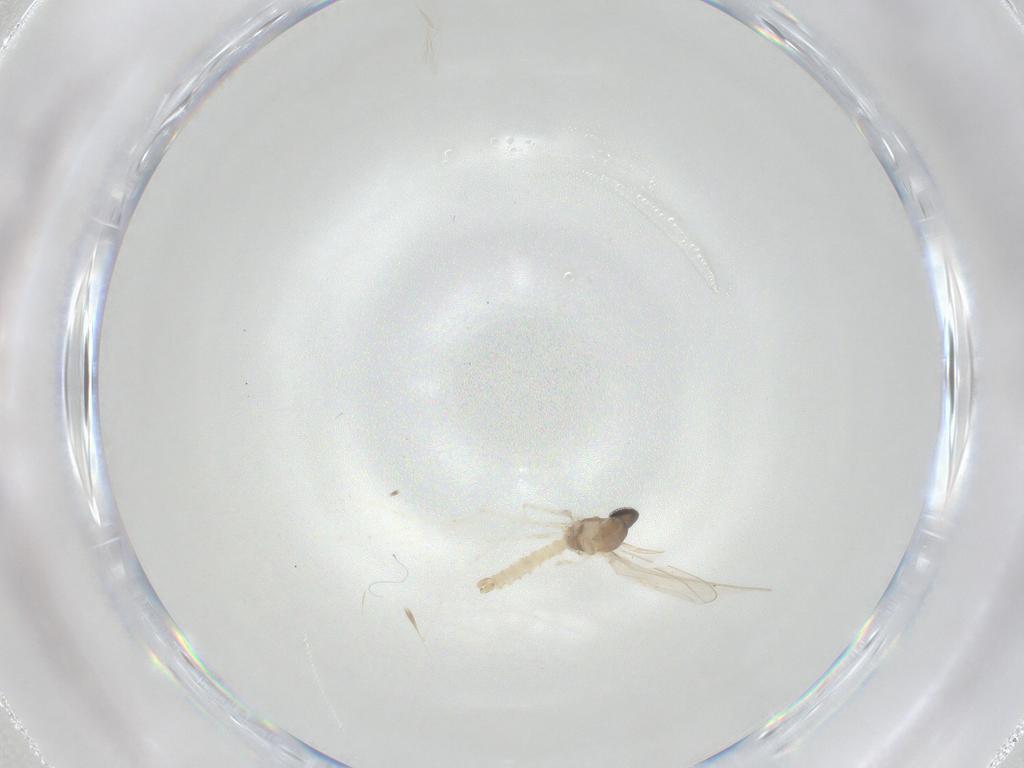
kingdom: Animalia
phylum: Arthropoda
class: Insecta
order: Diptera
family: Cecidomyiidae
